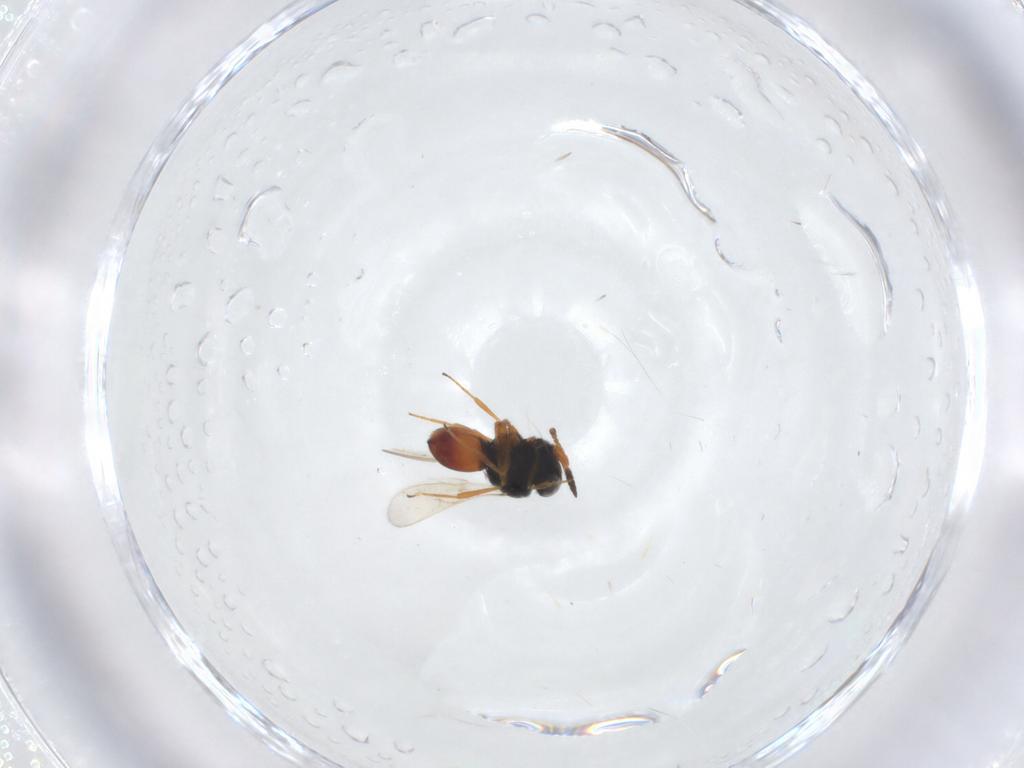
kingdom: Animalia
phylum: Arthropoda
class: Insecta
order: Hymenoptera
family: Scelionidae
